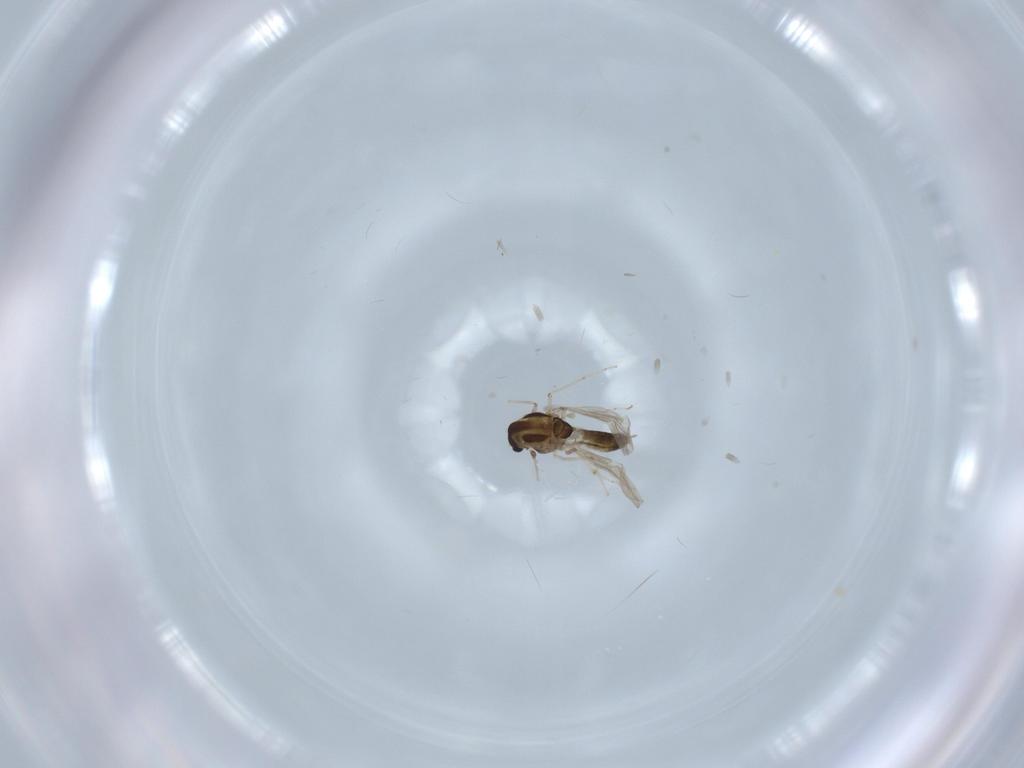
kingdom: Animalia
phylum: Arthropoda
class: Insecta
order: Diptera
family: Chironomidae
